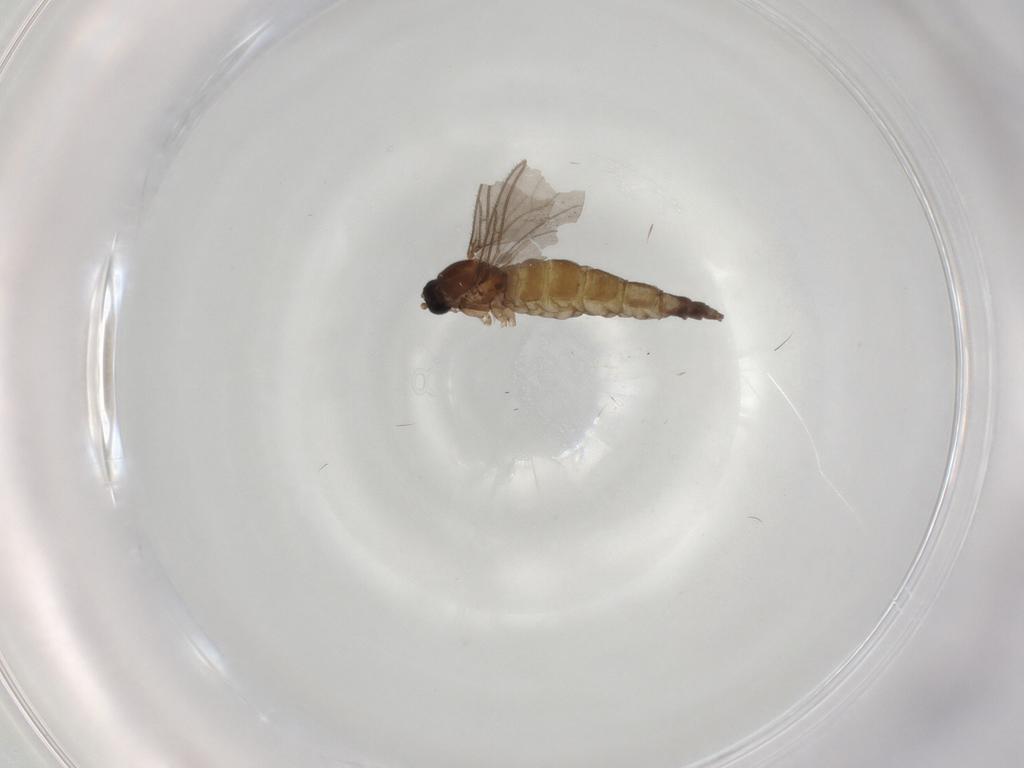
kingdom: Animalia
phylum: Arthropoda
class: Insecta
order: Diptera
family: Sciaridae
